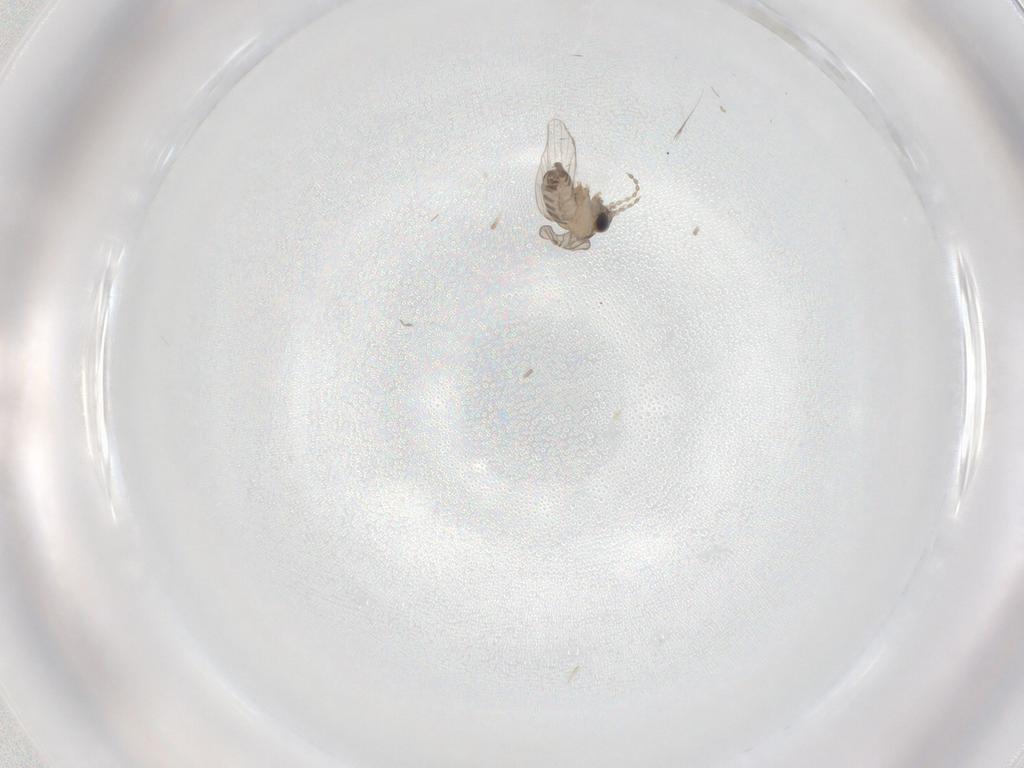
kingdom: Animalia
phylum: Arthropoda
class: Insecta
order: Diptera
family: Cecidomyiidae
